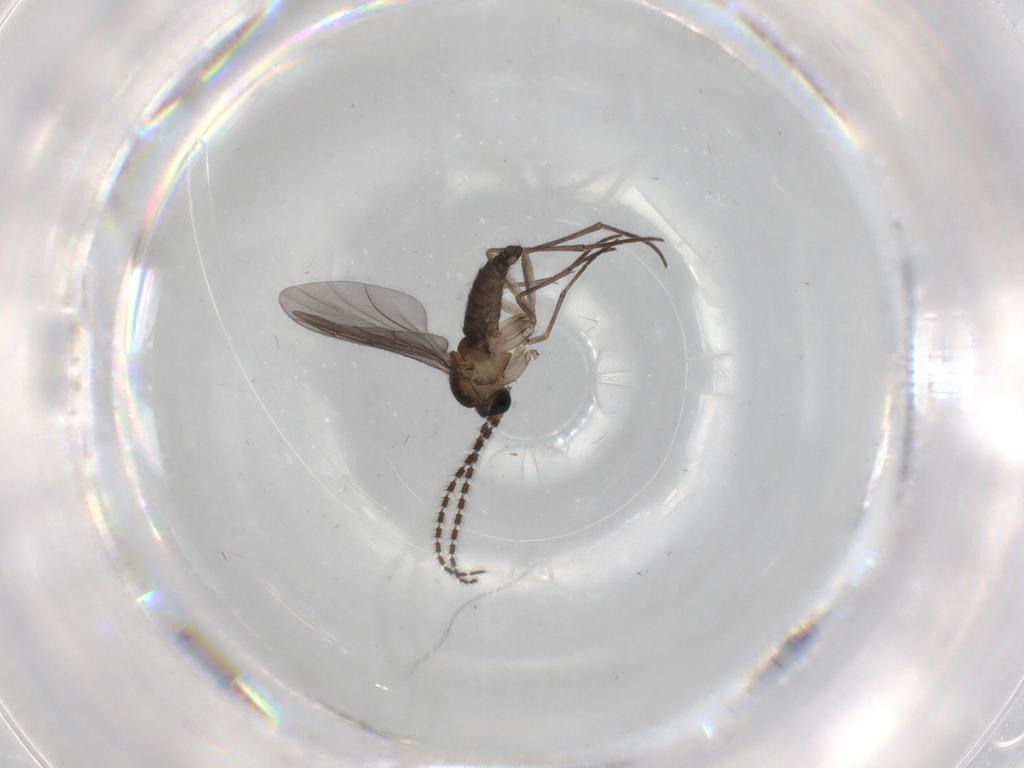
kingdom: Animalia
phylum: Arthropoda
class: Insecta
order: Diptera
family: Sciaridae
